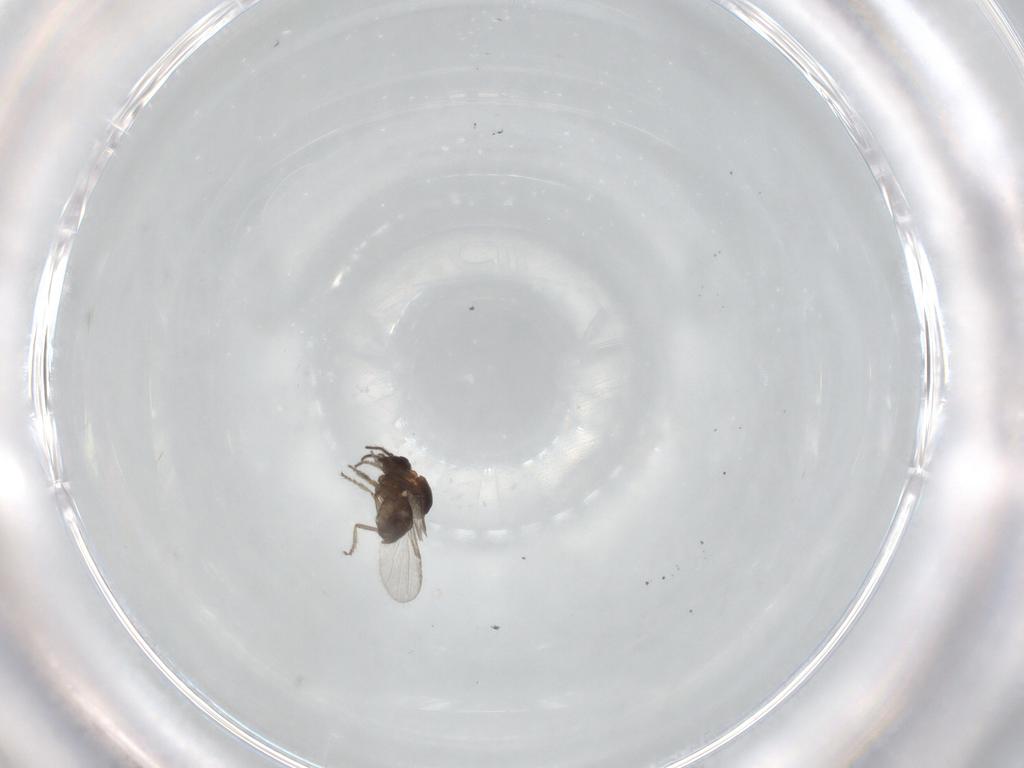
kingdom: Animalia
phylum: Arthropoda
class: Insecta
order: Diptera
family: Ceratopogonidae
